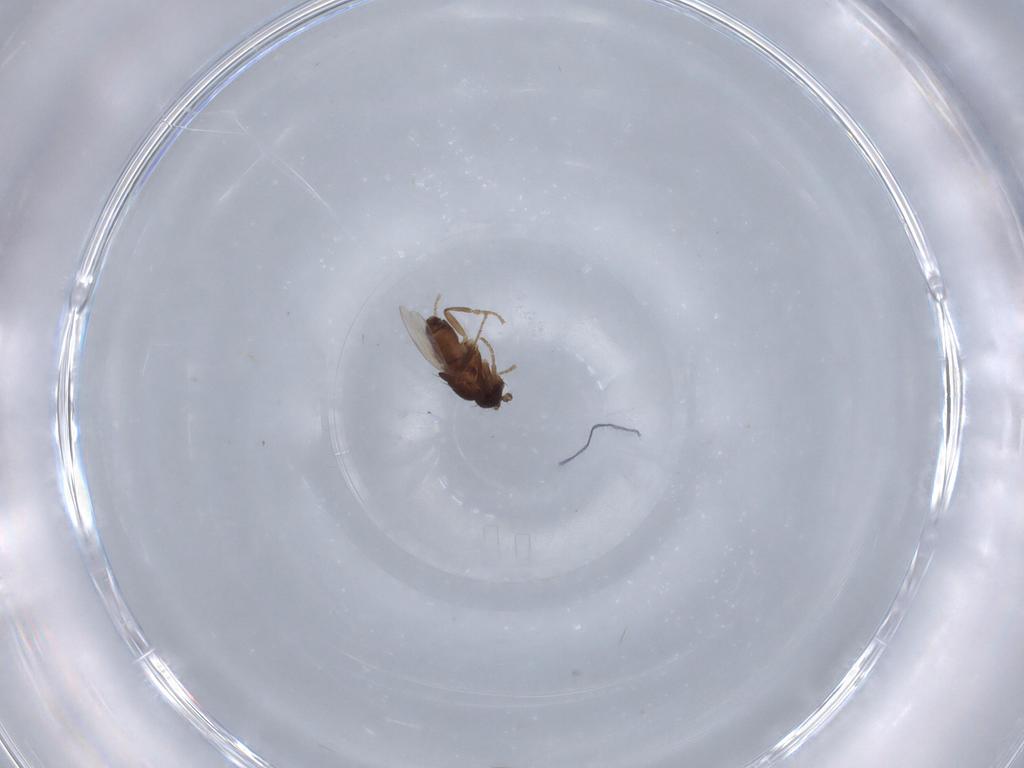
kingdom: Animalia
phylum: Arthropoda
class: Insecta
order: Diptera
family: Sphaeroceridae
